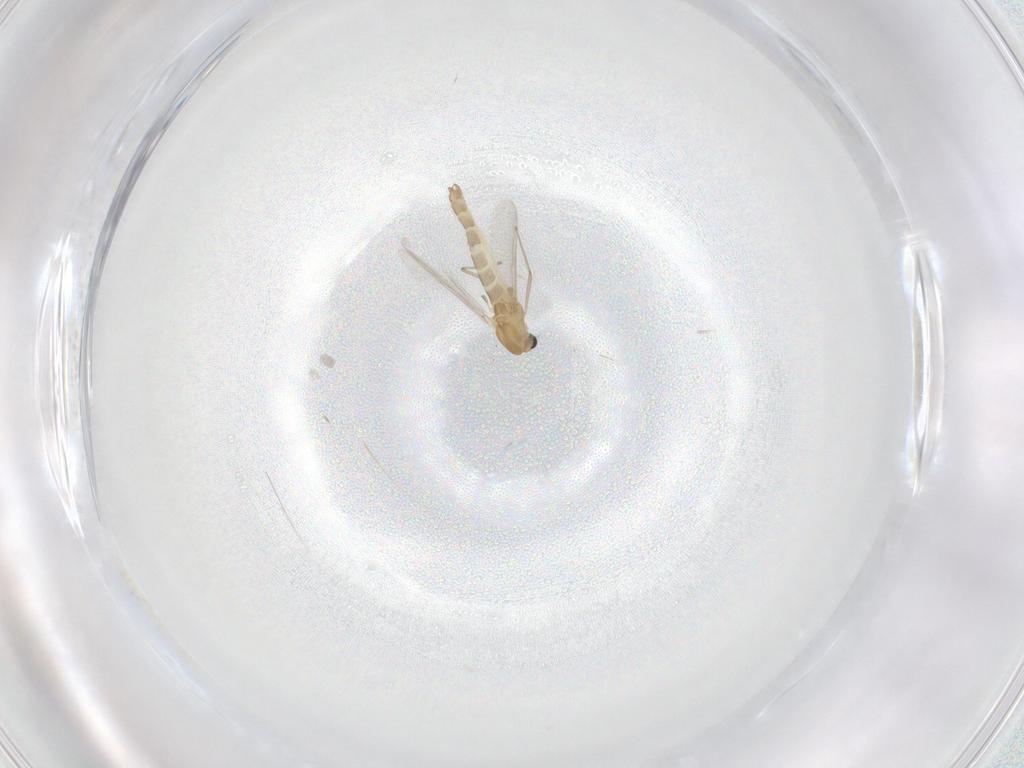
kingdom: Animalia
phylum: Arthropoda
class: Insecta
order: Diptera
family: Chironomidae
